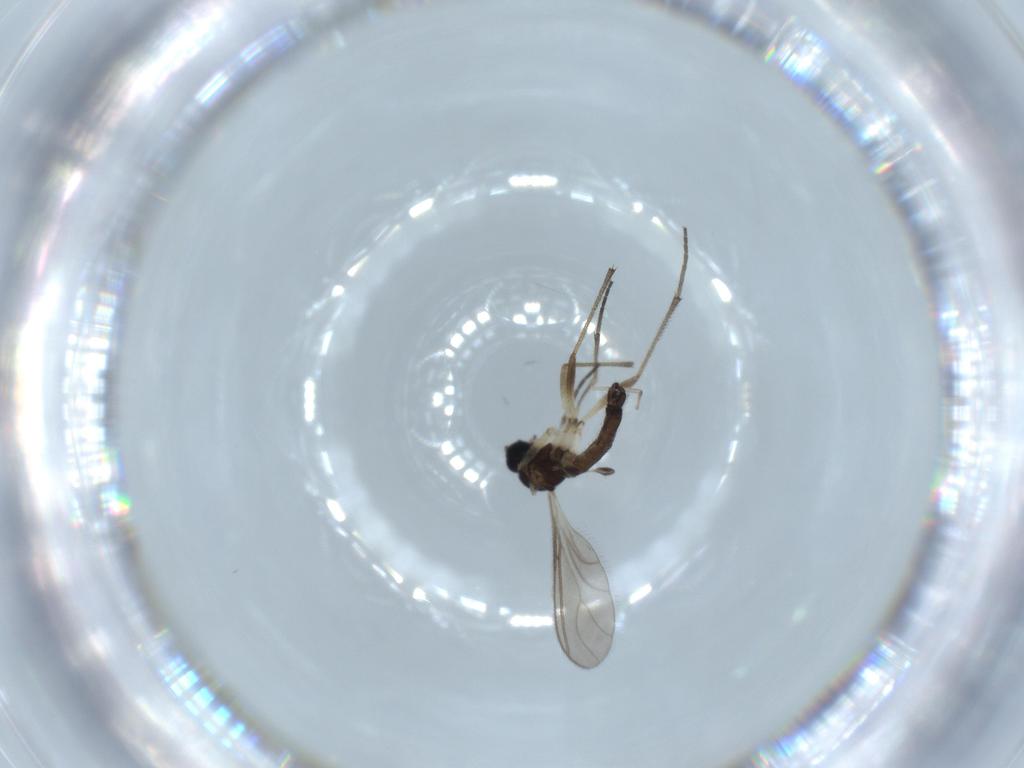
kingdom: Animalia
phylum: Arthropoda
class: Insecta
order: Diptera
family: Sciaridae
